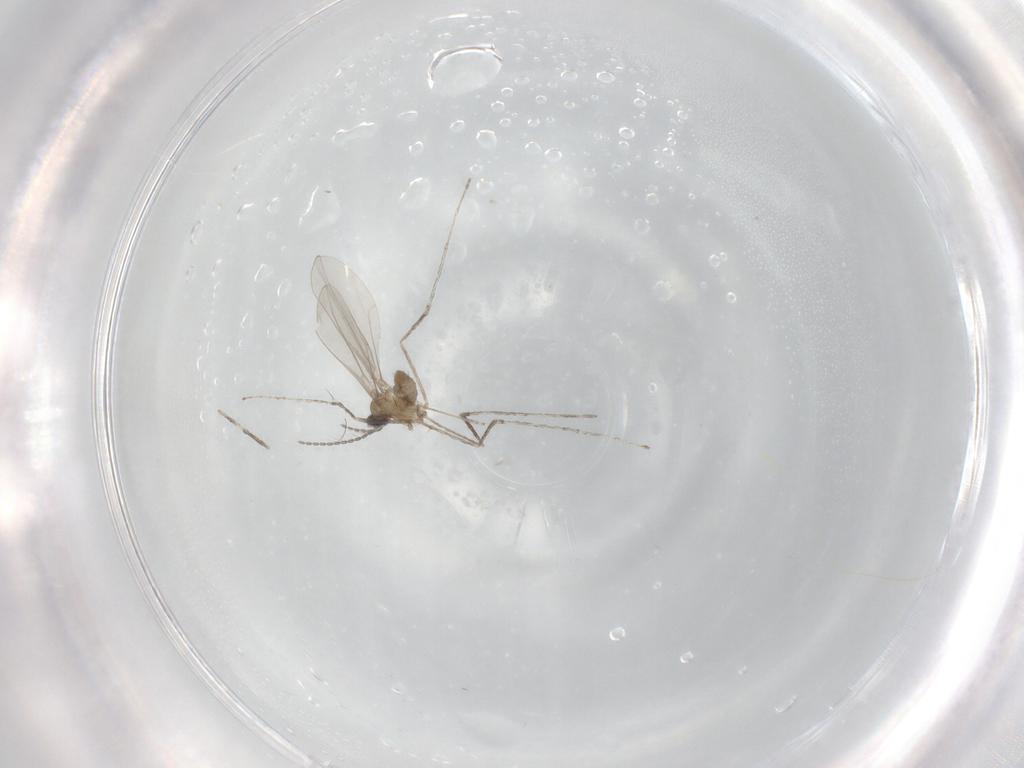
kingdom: Animalia
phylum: Arthropoda
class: Insecta
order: Diptera
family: Cecidomyiidae
